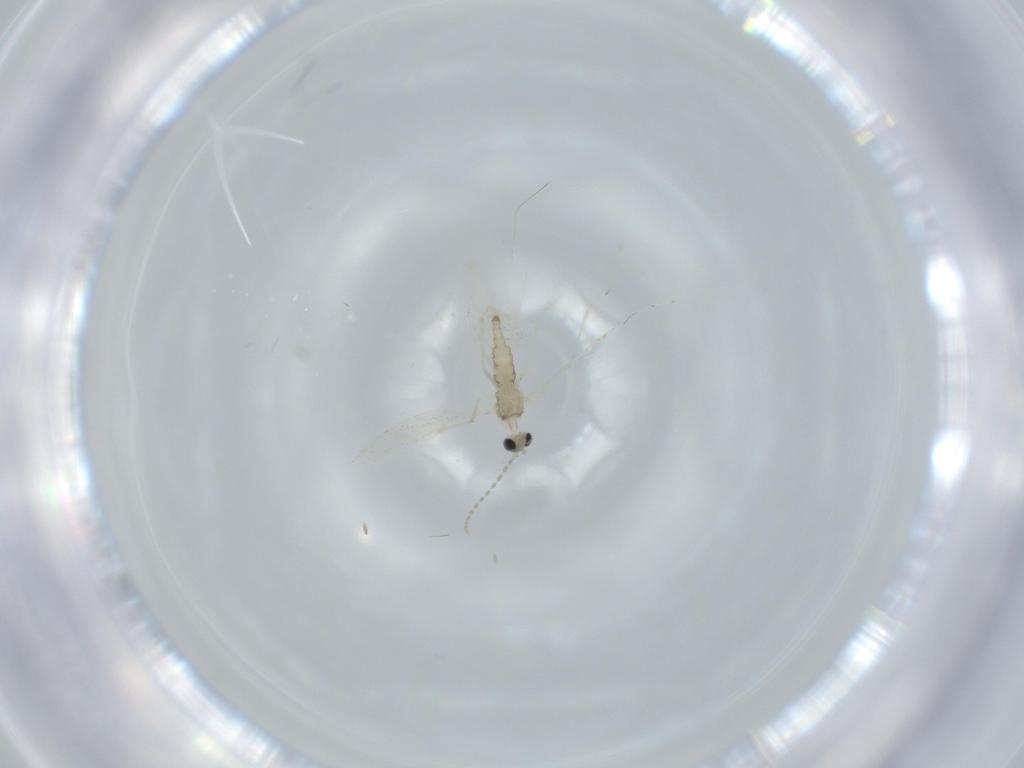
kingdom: Animalia
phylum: Arthropoda
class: Insecta
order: Diptera
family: Cecidomyiidae
